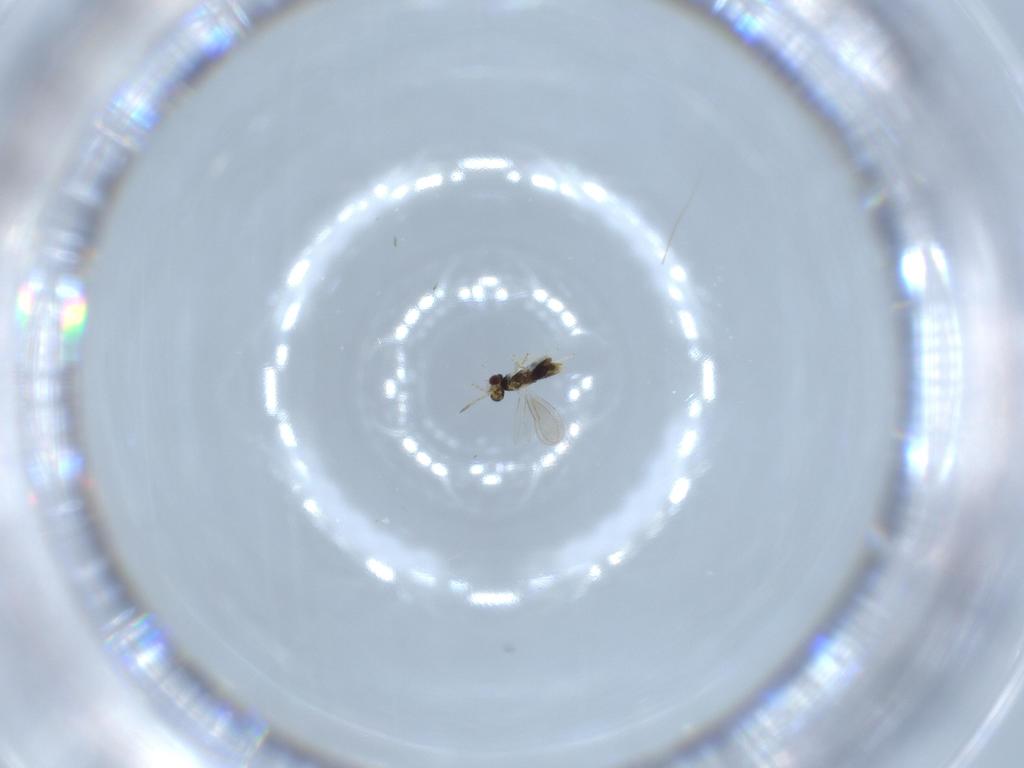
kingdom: Animalia
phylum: Arthropoda
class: Insecta
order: Hymenoptera
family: Aphelinidae
